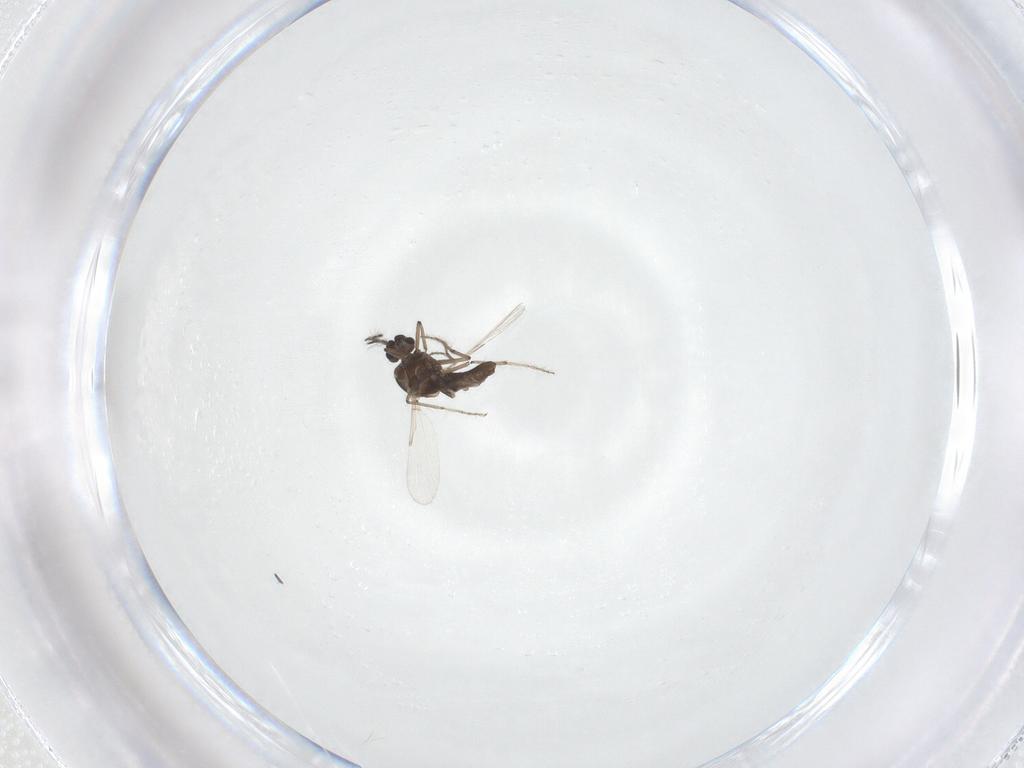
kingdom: Animalia
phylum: Arthropoda
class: Insecta
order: Diptera
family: Ceratopogonidae
